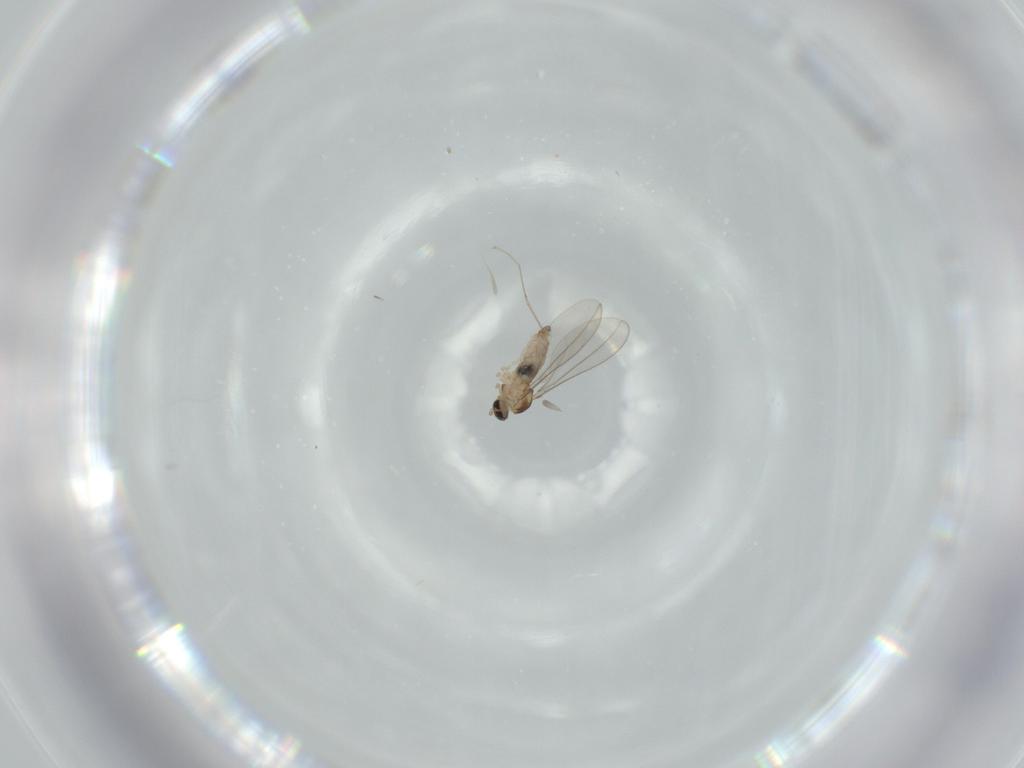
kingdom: Animalia
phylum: Arthropoda
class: Insecta
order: Diptera
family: Cecidomyiidae
